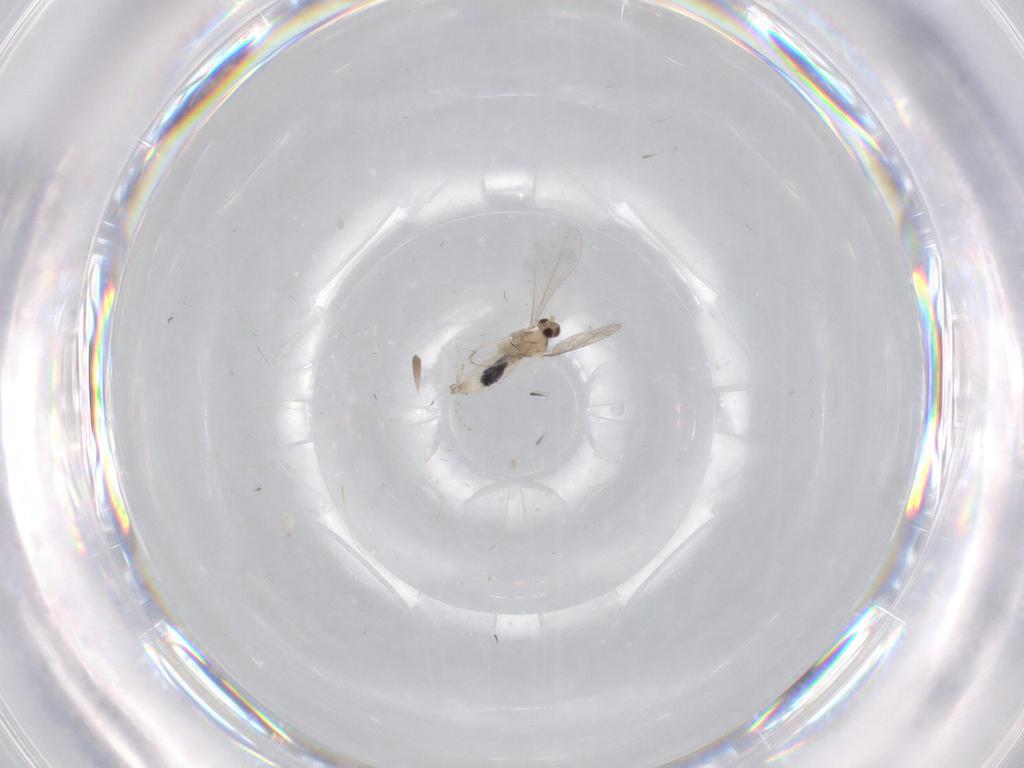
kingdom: Animalia
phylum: Arthropoda
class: Insecta
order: Diptera
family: Cecidomyiidae
